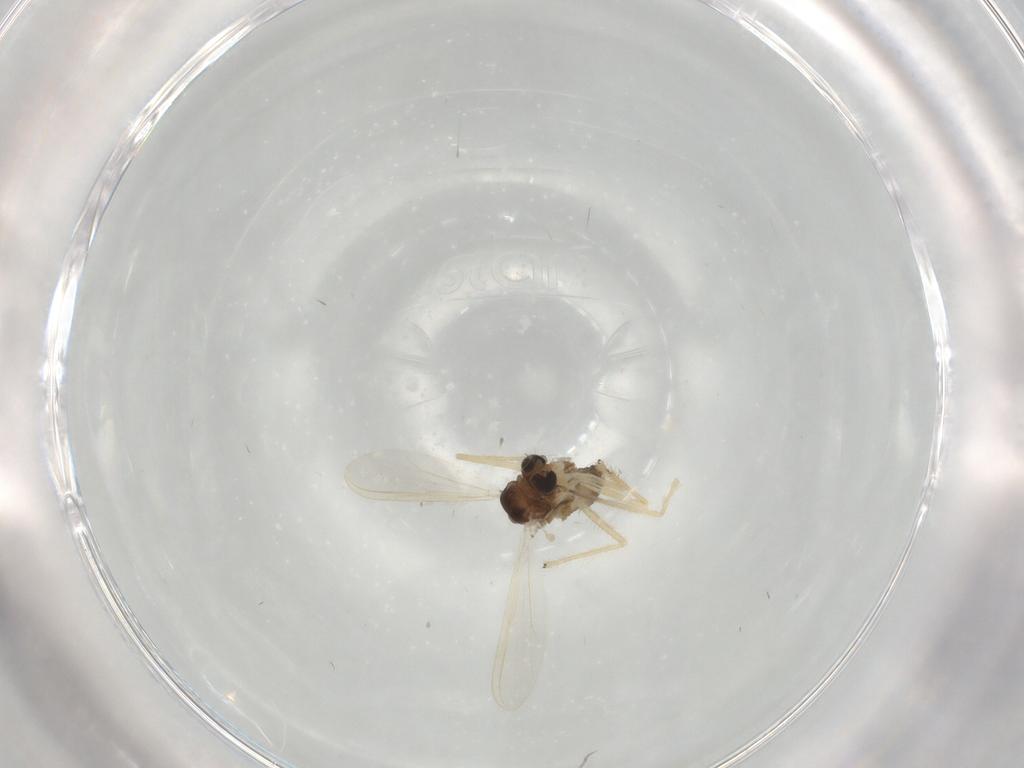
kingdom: Animalia
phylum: Arthropoda
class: Insecta
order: Diptera
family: Chironomidae
